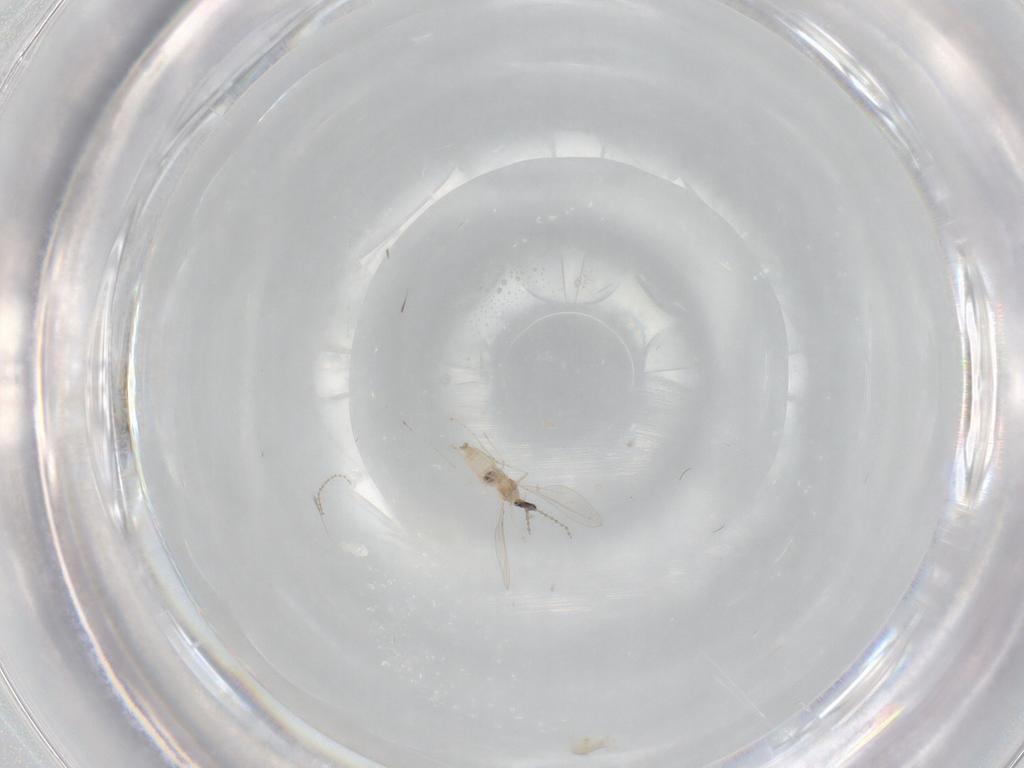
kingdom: Animalia
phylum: Arthropoda
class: Insecta
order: Diptera
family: Cecidomyiidae
